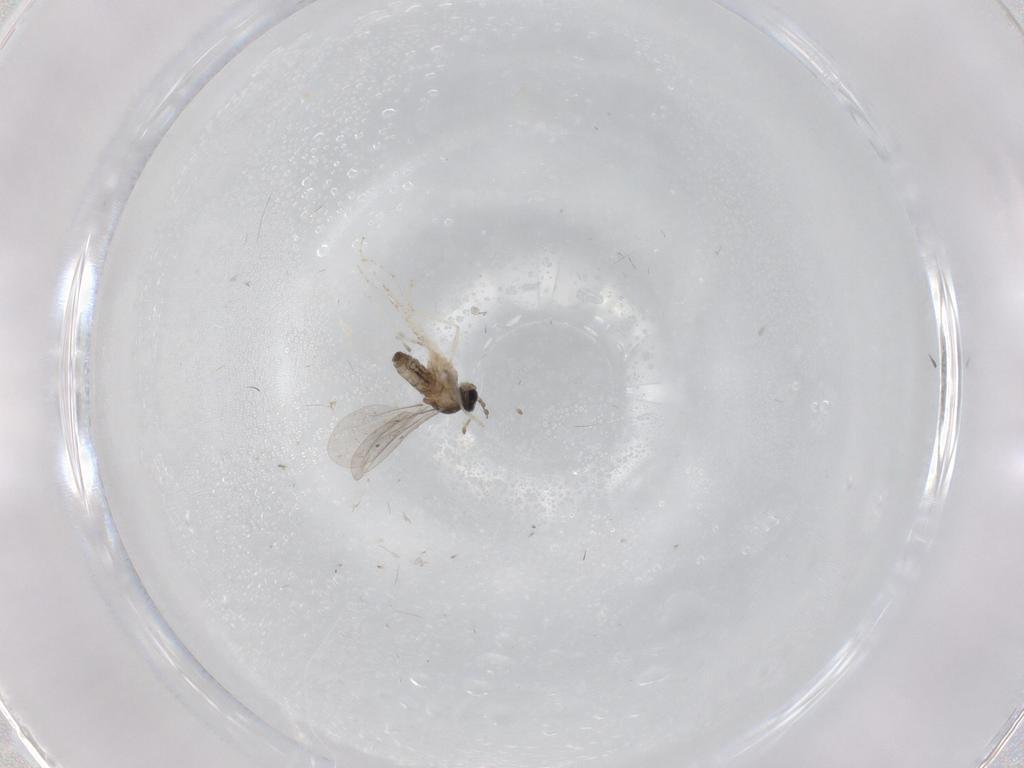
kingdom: Animalia
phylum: Arthropoda
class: Insecta
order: Diptera
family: Cecidomyiidae
